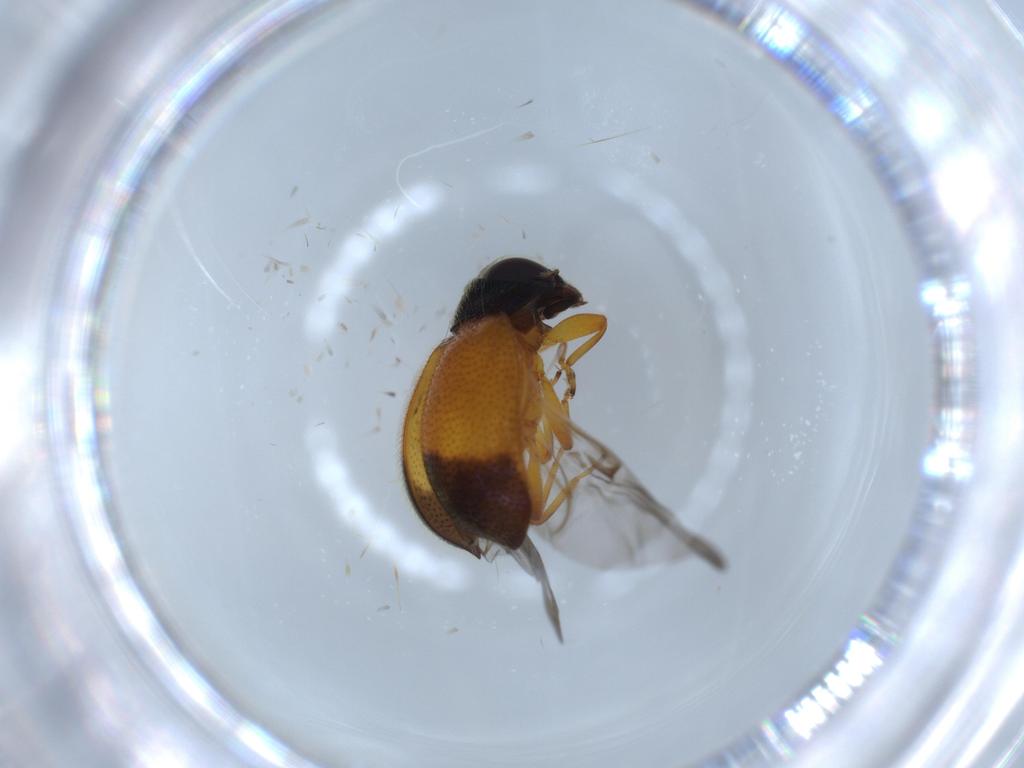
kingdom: Animalia
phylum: Arthropoda
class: Insecta
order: Coleoptera
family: Coccinellidae
